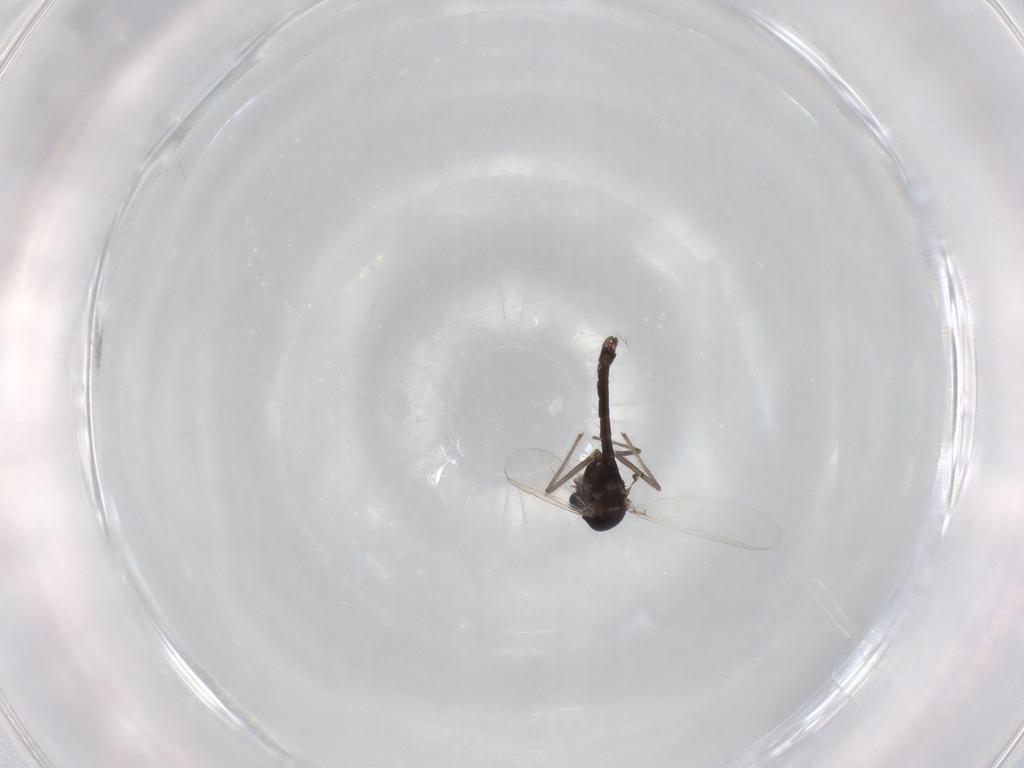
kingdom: Animalia
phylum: Arthropoda
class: Insecta
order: Diptera
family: Chironomidae
